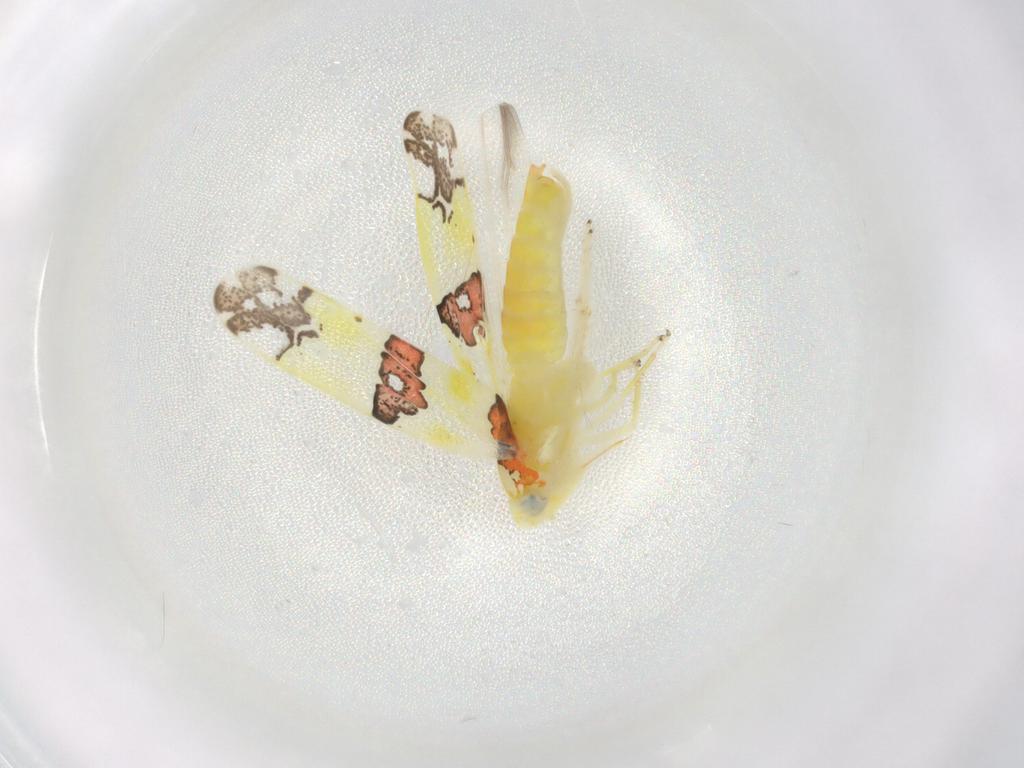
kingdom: Animalia
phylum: Arthropoda
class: Insecta
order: Hemiptera
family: Cicadellidae
